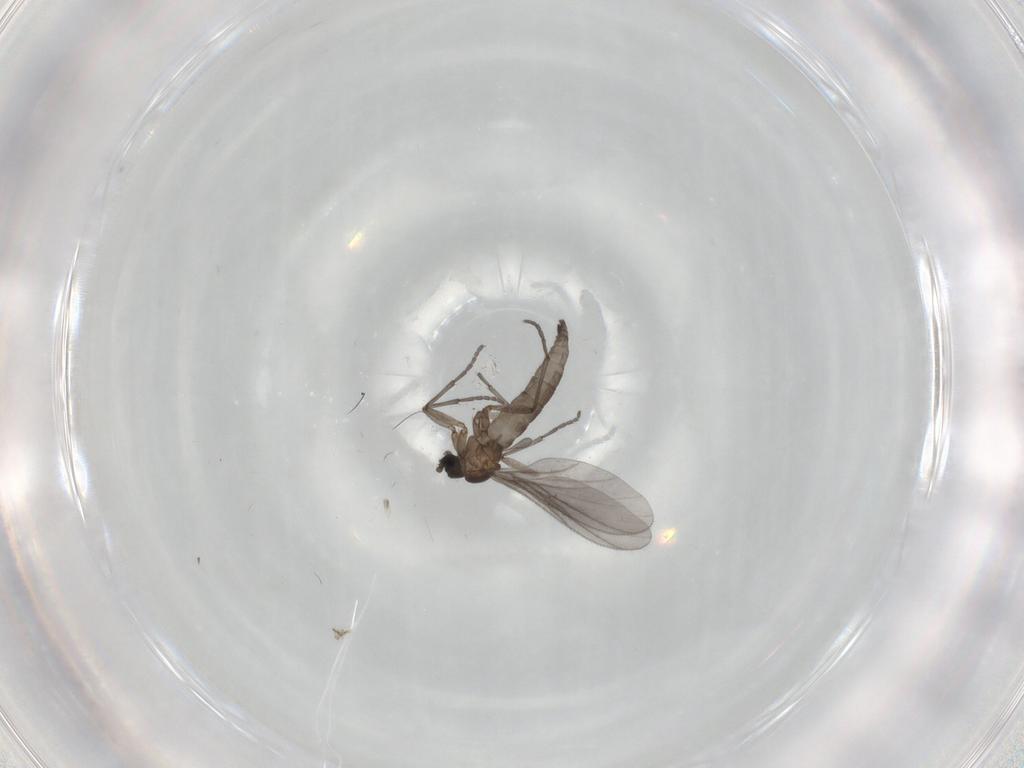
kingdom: Animalia
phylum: Arthropoda
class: Insecta
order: Diptera
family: Sciaridae
